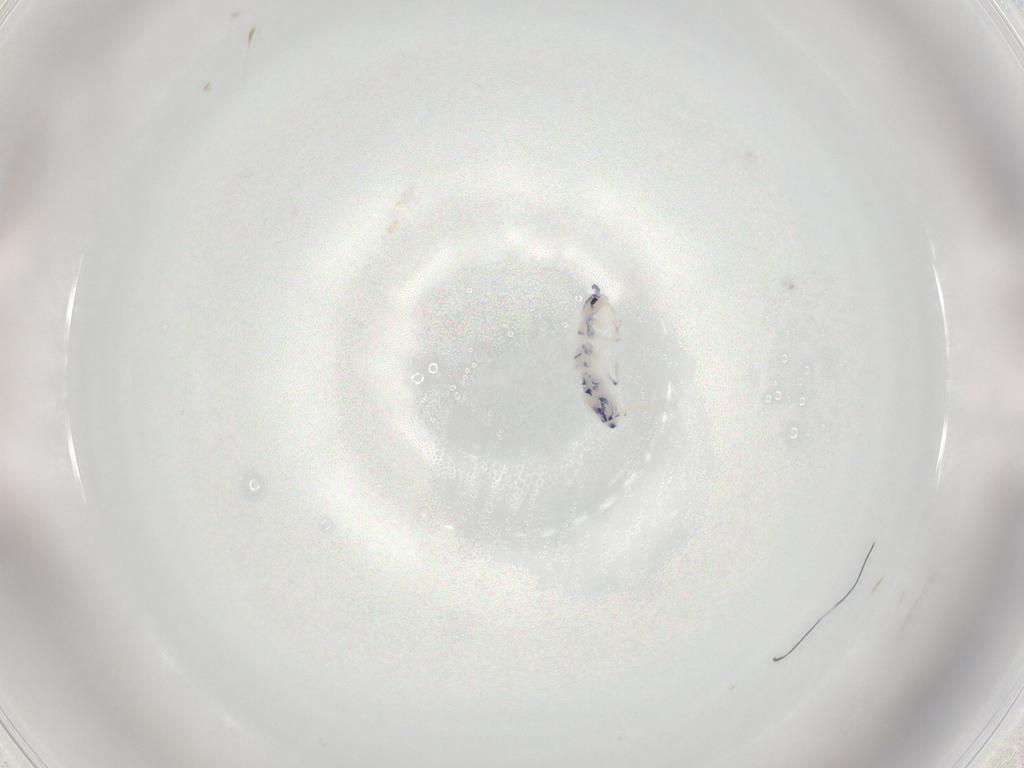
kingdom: Animalia
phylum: Arthropoda
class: Collembola
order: Entomobryomorpha
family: Entomobryidae
